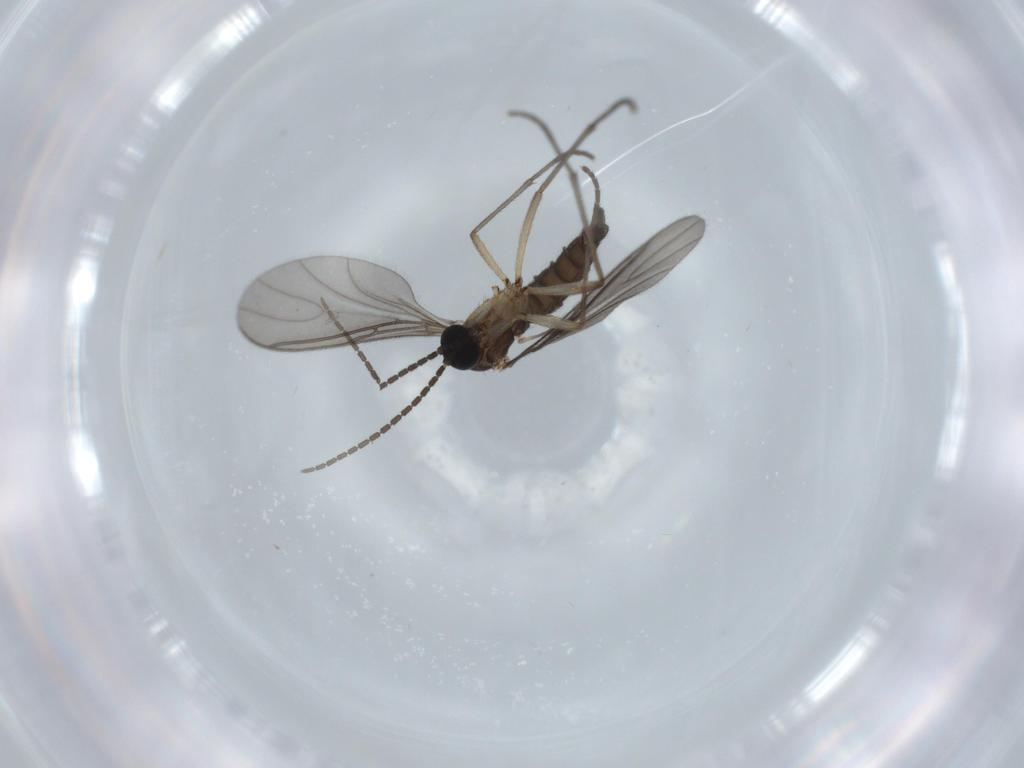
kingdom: Animalia
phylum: Arthropoda
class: Insecta
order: Diptera
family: Sciaridae
